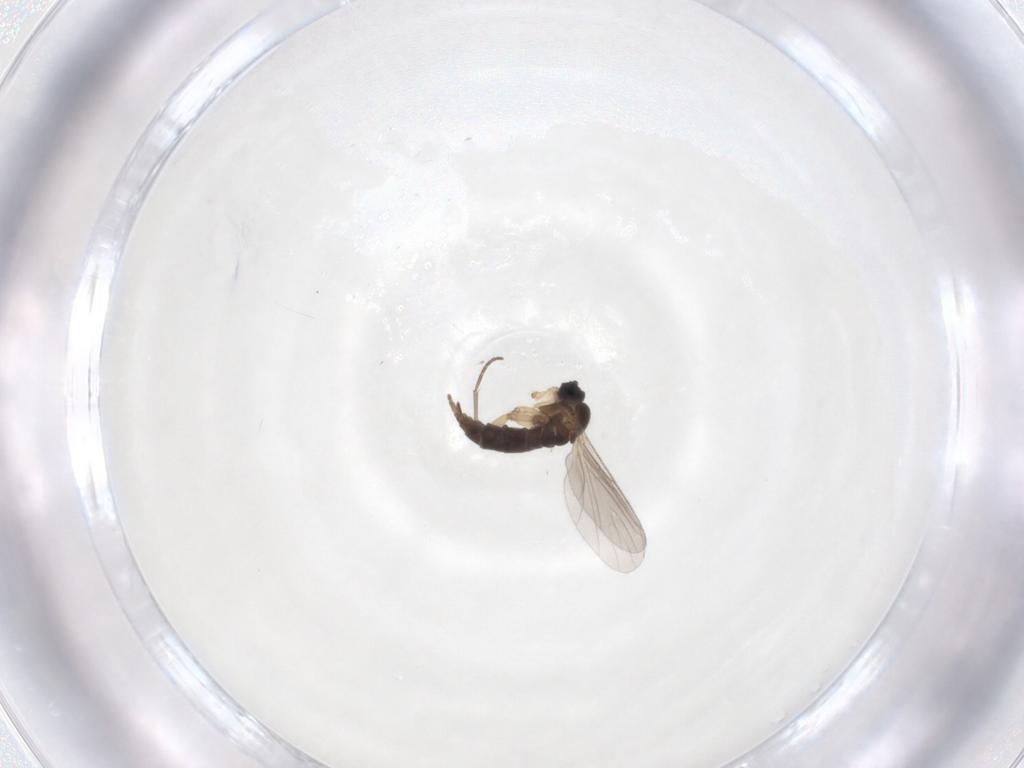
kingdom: Animalia
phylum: Arthropoda
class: Insecta
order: Diptera
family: Sciaridae
